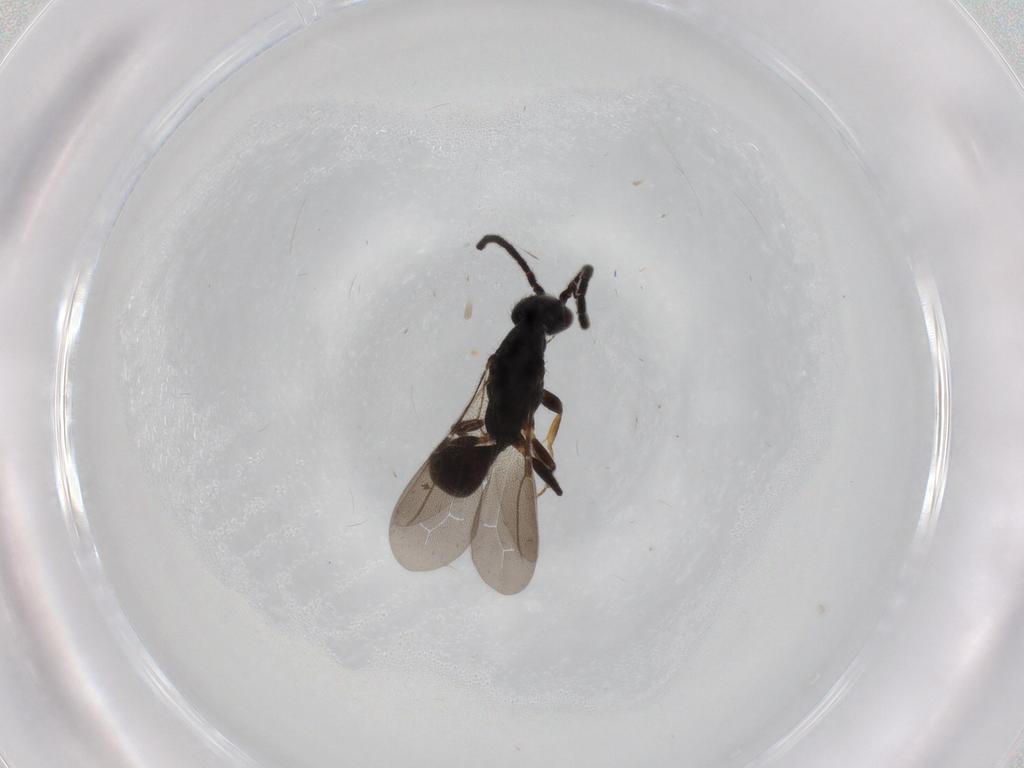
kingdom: Animalia
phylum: Arthropoda
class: Insecta
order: Hymenoptera
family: Bethylidae
